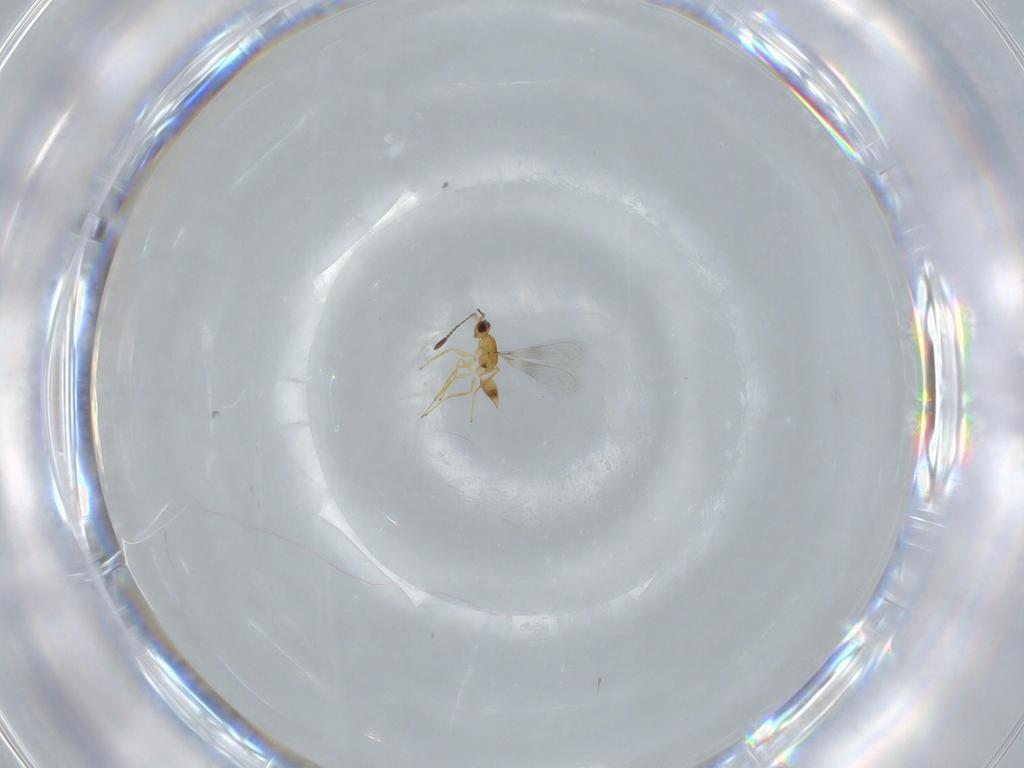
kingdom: Animalia
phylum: Arthropoda
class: Insecta
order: Hymenoptera
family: Mymaridae
